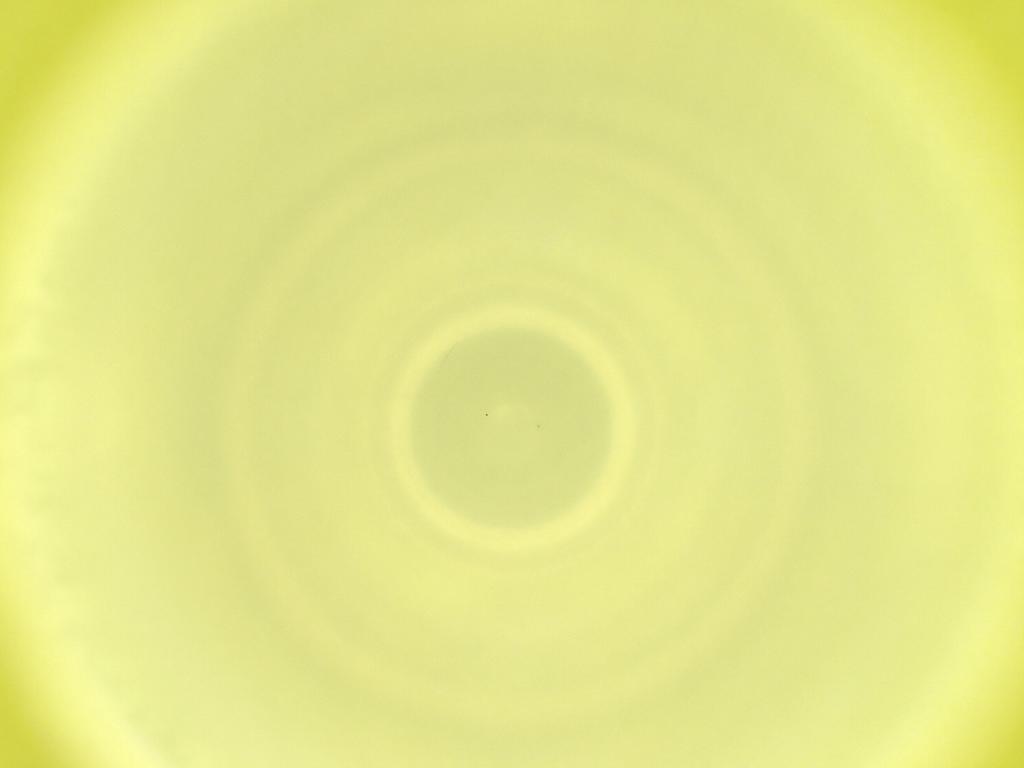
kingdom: Animalia
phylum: Arthropoda
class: Insecta
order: Diptera
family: Cecidomyiidae
